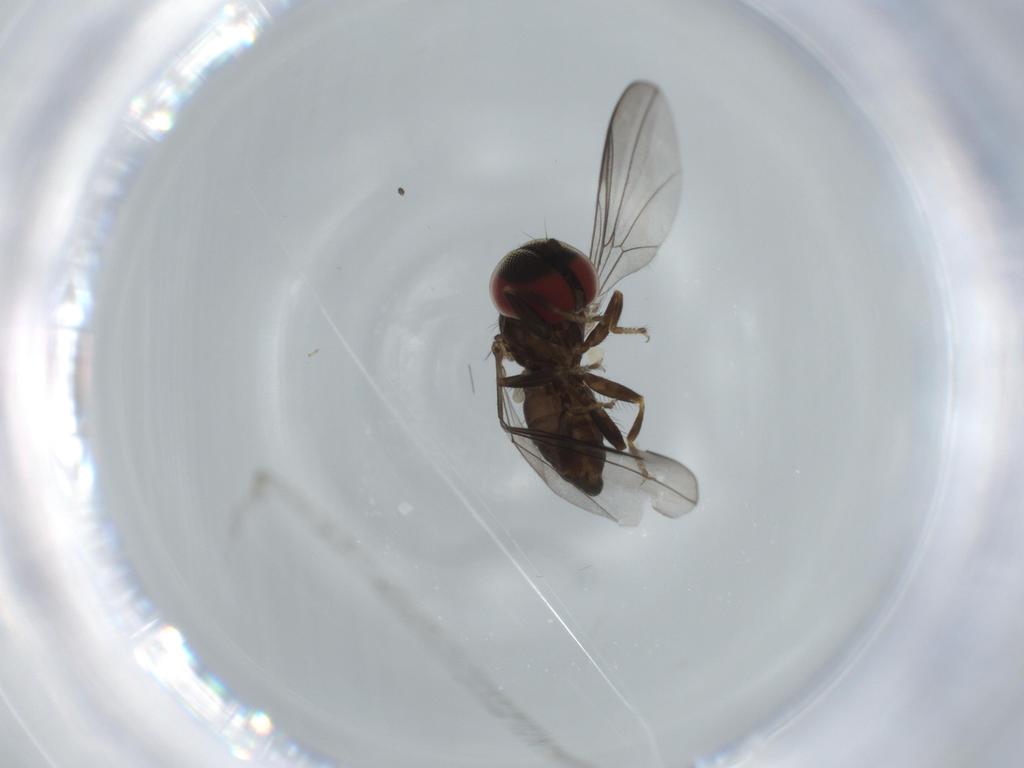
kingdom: Animalia
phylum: Arthropoda
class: Insecta
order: Diptera
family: Pipunculidae
